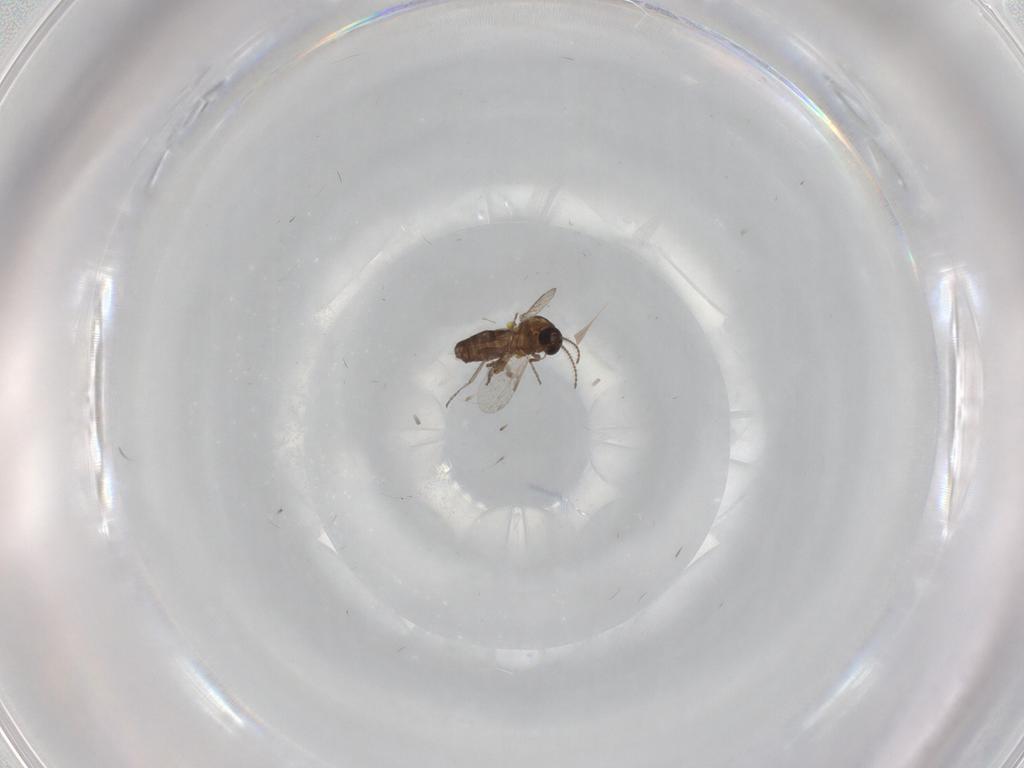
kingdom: Animalia
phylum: Arthropoda
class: Insecta
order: Diptera
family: Ceratopogonidae
